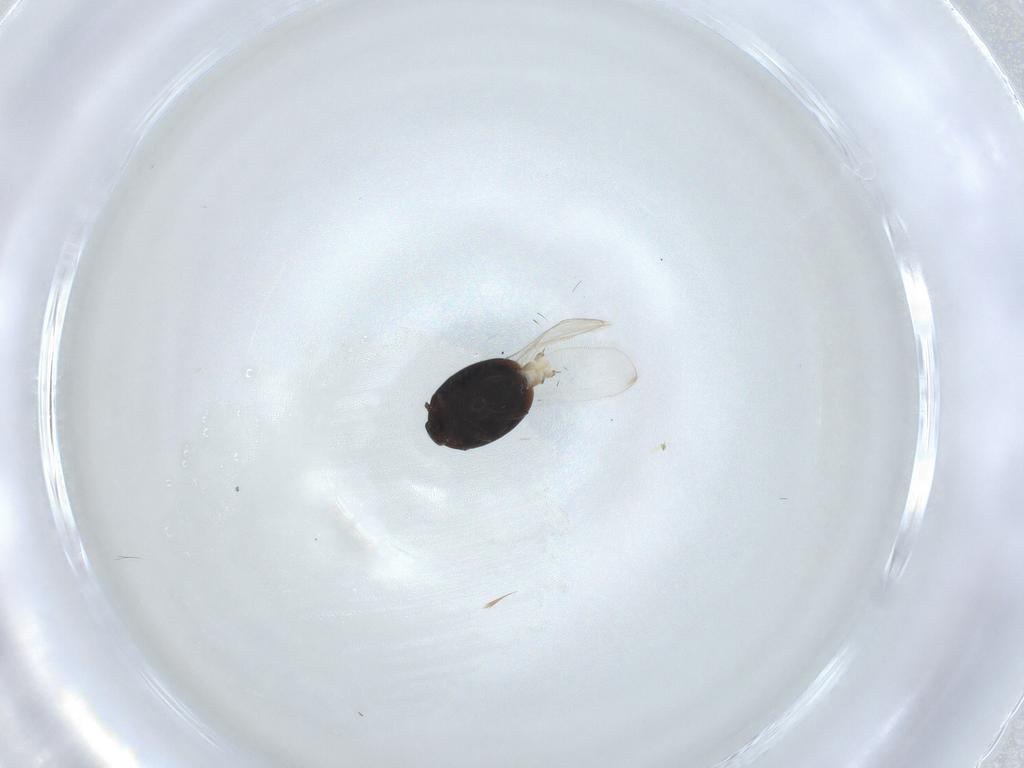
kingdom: Animalia
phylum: Arthropoda
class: Insecta
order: Coleoptera
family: Corylophidae
